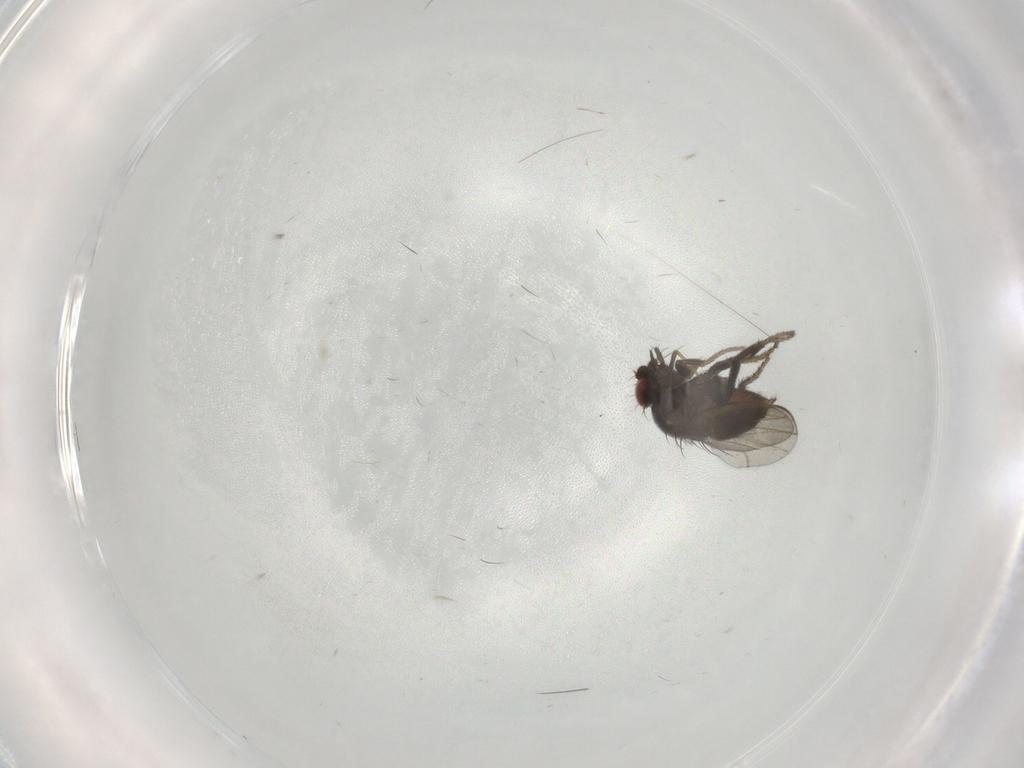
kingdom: Animalia
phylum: Arthropoda
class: Insecta
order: Diptera
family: Milichiidae
